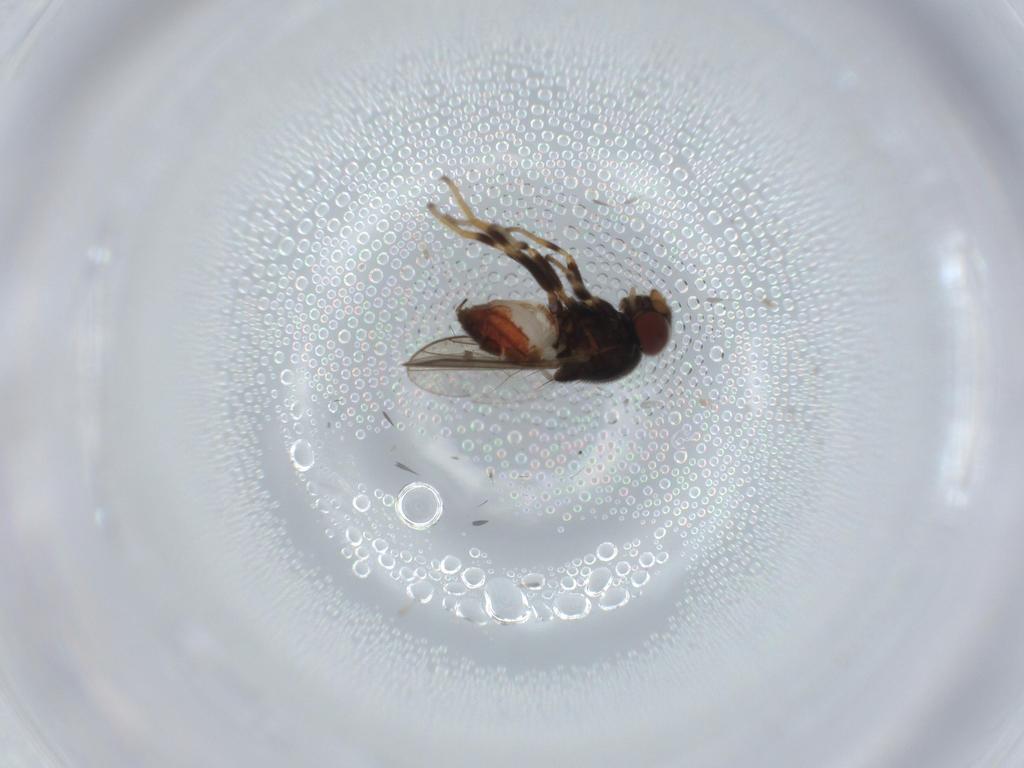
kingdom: Animalia
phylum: Arthropoda
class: Insecta
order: Diptera
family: Chloropidae
